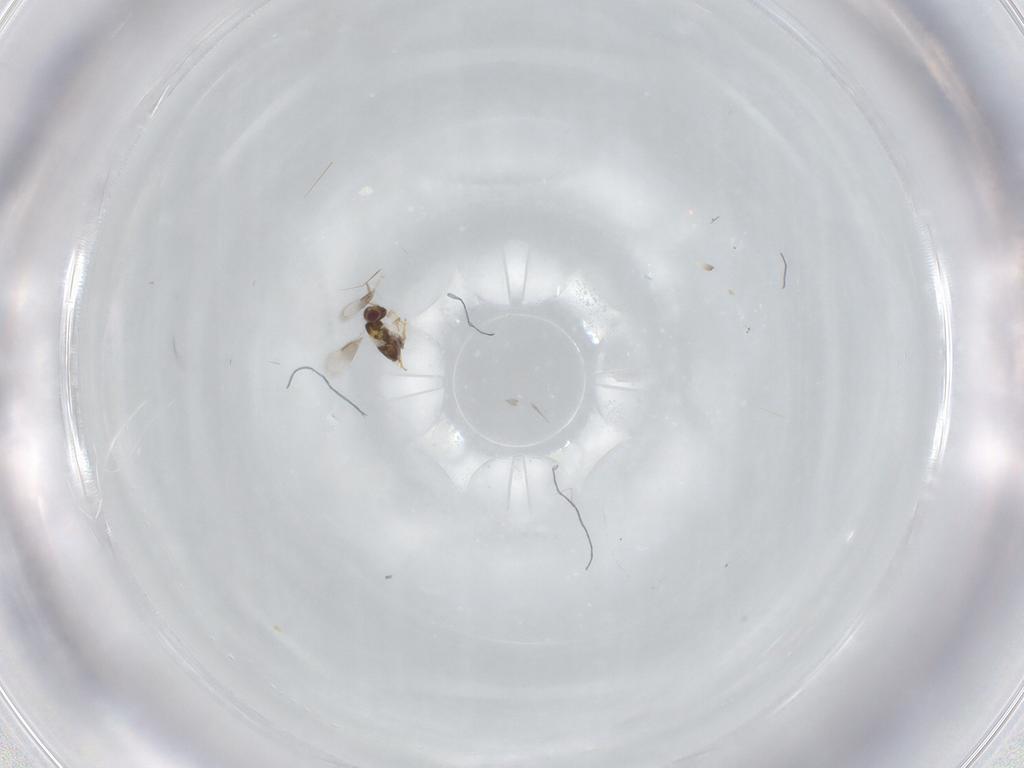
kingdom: Animalia
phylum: Arthropoda
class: Insecta
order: Hymenoptera
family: Aphelinidae
